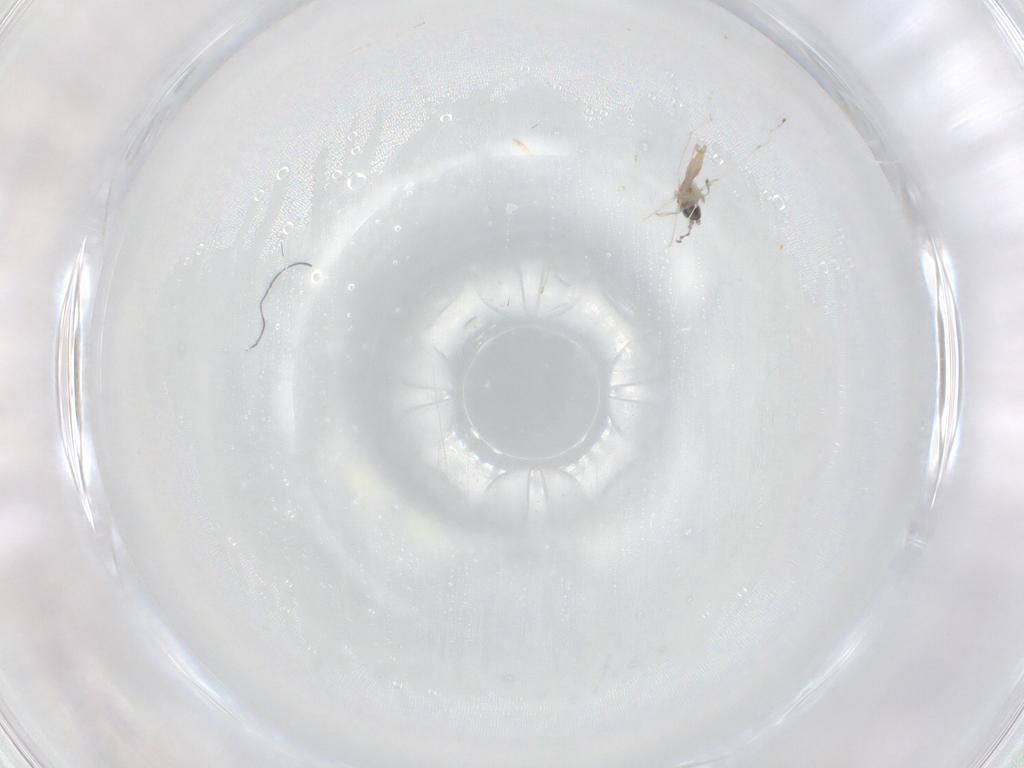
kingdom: Animalia
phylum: Arthropoda
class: Insecta
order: Diptera
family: Cecidomyiidae
